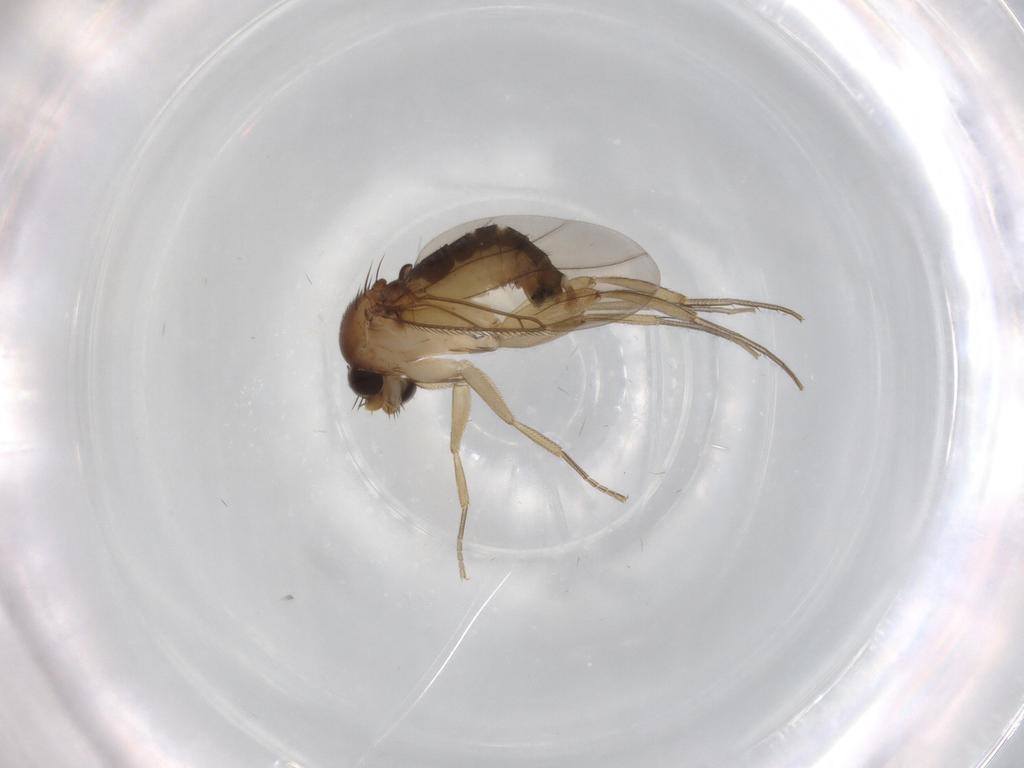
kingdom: Animalia
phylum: Arthropoda
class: Insecta
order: Diptera
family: Phoridae
